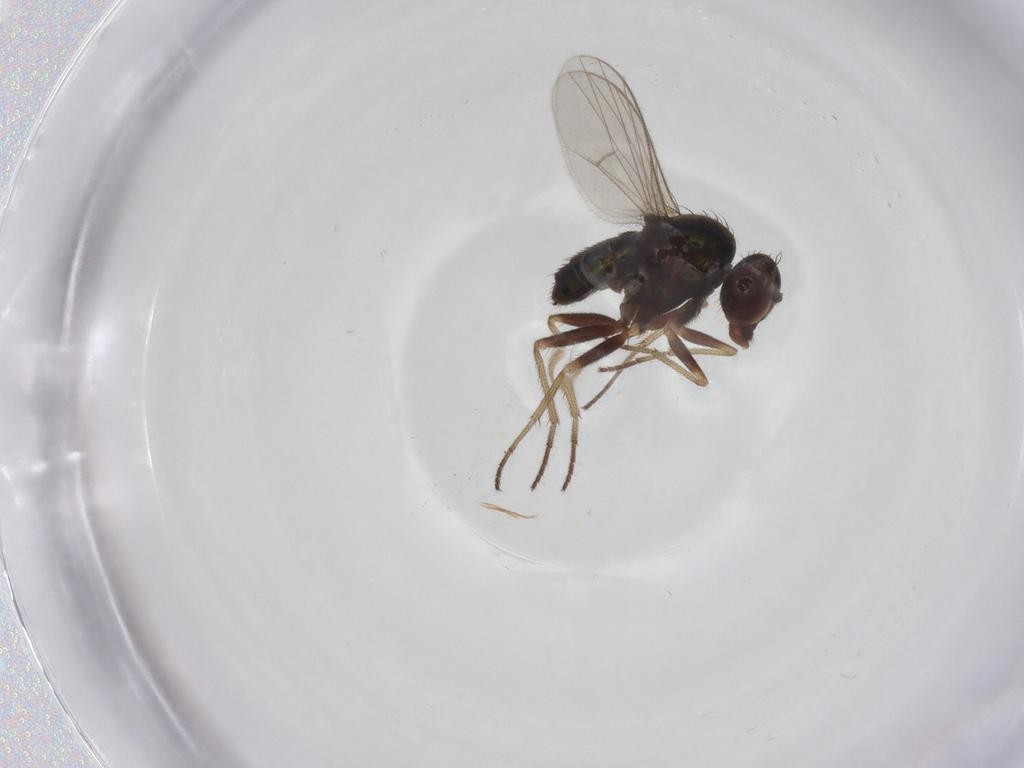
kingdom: Animalia
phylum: Arthropoda
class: Insecta
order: Diptera
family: Dolichopodidae
